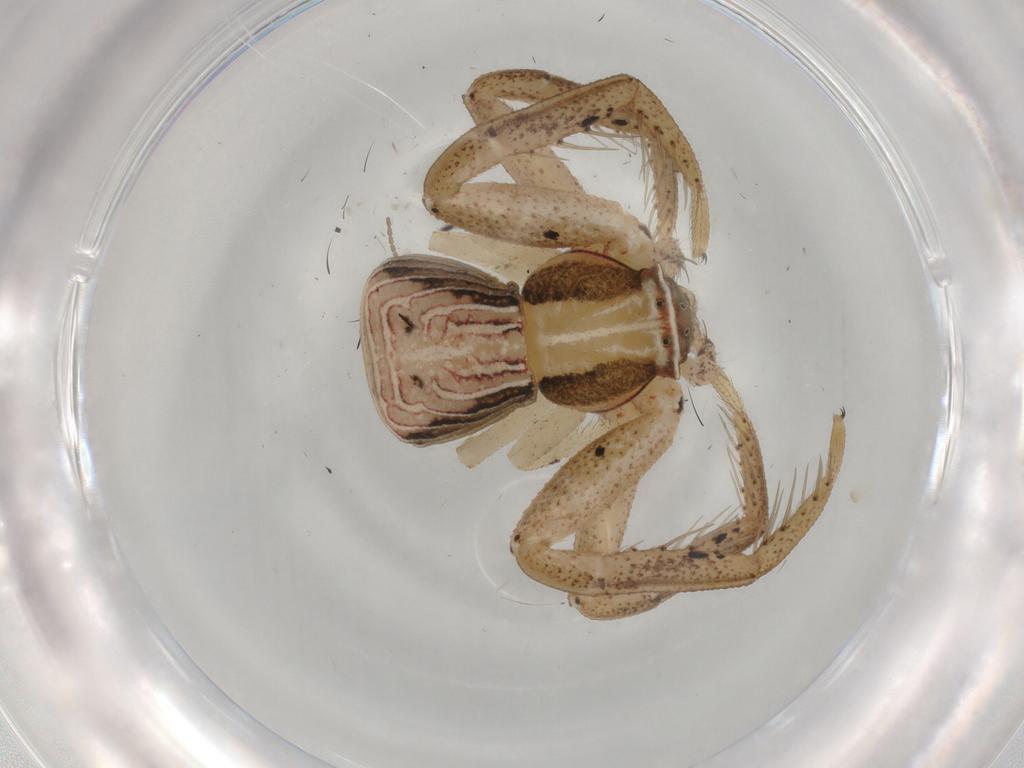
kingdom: Animalia
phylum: Arthropoda
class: Arachnida
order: Araneae
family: Thomisidae
